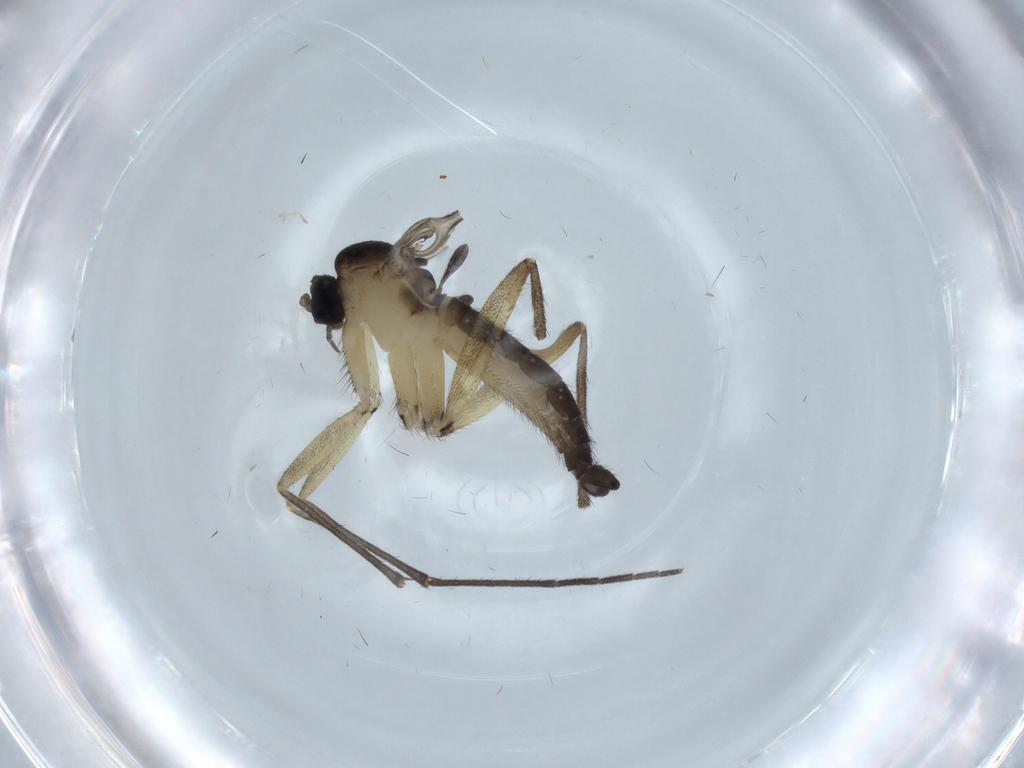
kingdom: Animalia
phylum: Arthropoda
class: Insecta
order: Diptera
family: Sciaridae
